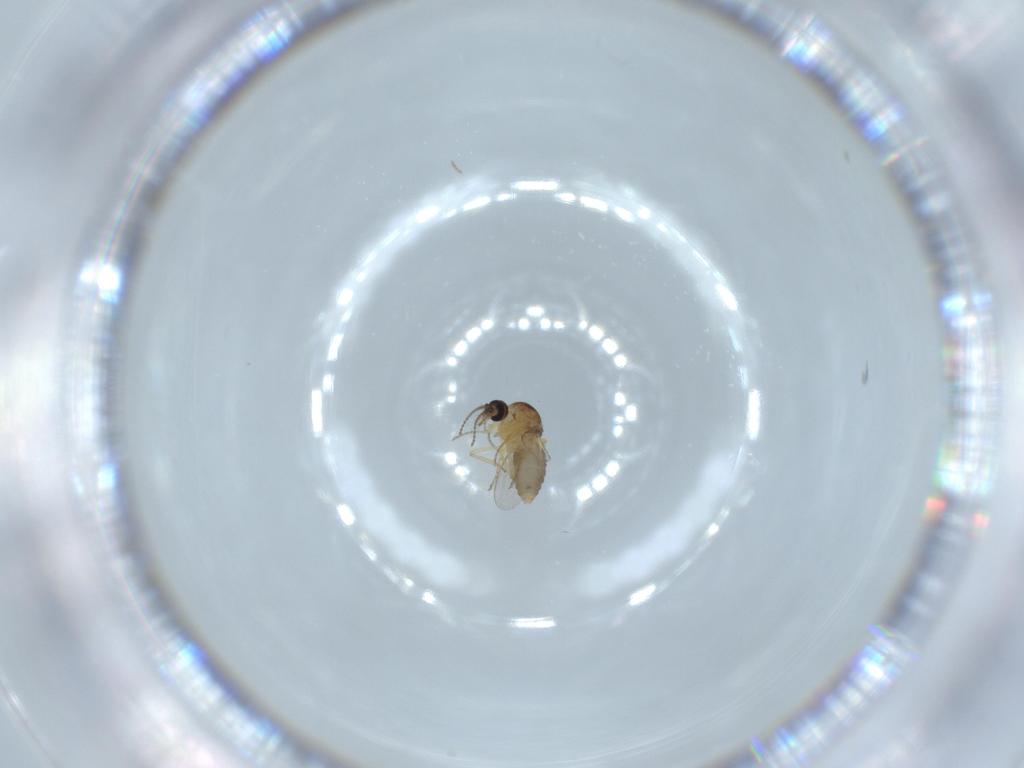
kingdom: Animalia
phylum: Arthropoda
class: Insecta
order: Diptera
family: Ceratopogonidae
